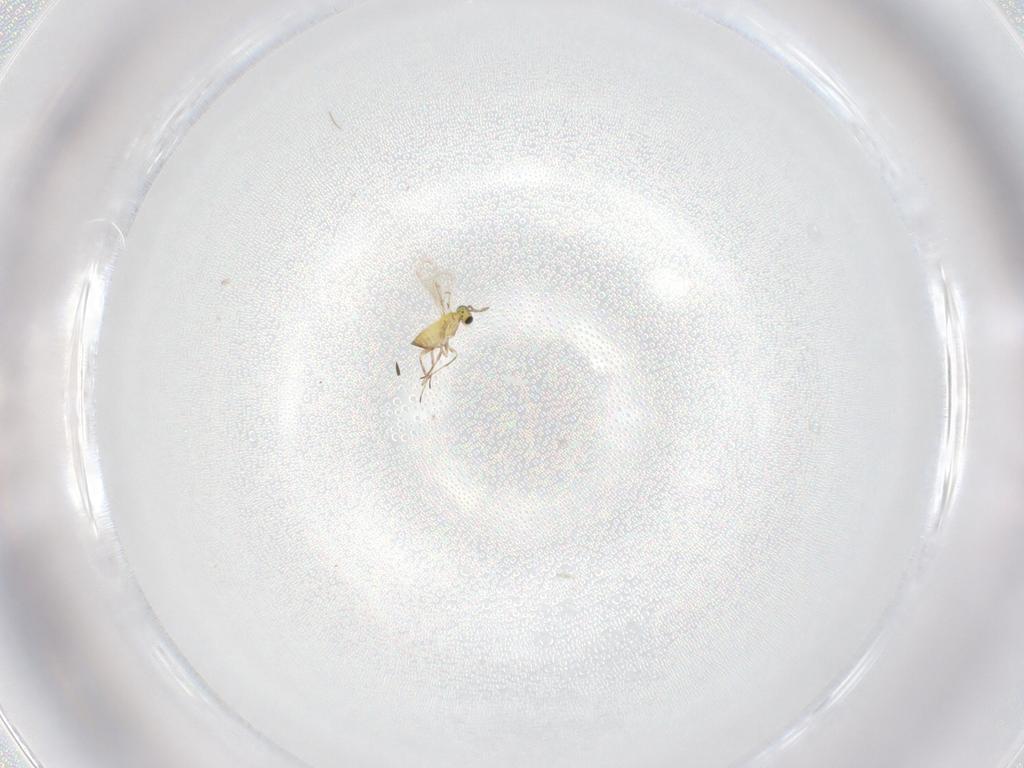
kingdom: Animalia
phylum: Arthropoda
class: Insecta
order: Hymenoptera
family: Trichogrammatidae
